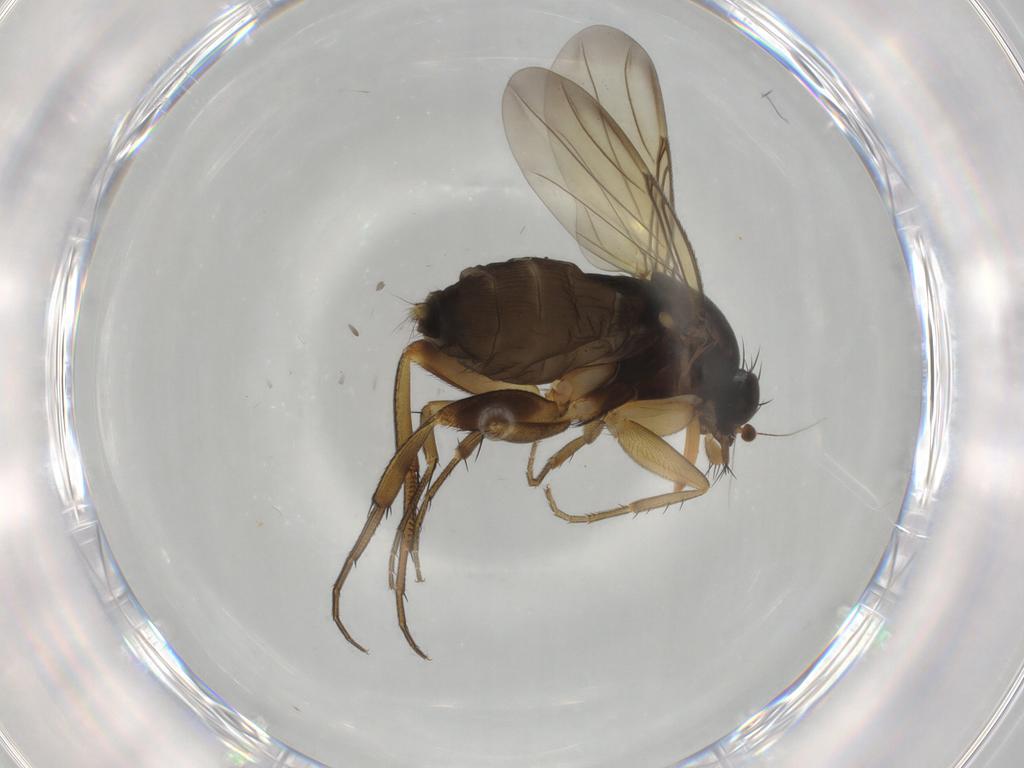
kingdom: Animalia
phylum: Arthropoda
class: Insecta
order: Diptera
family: Phoridae
